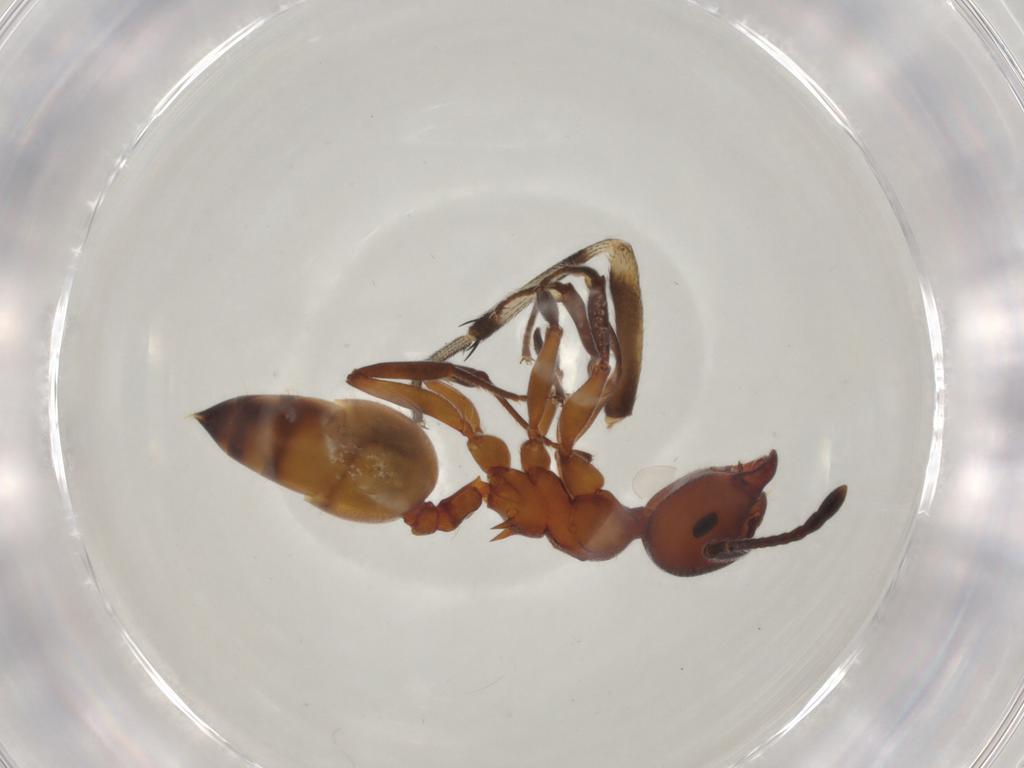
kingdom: Animalia
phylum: Arthropoda
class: Insecta
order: Hymenoptera
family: Formicidae
